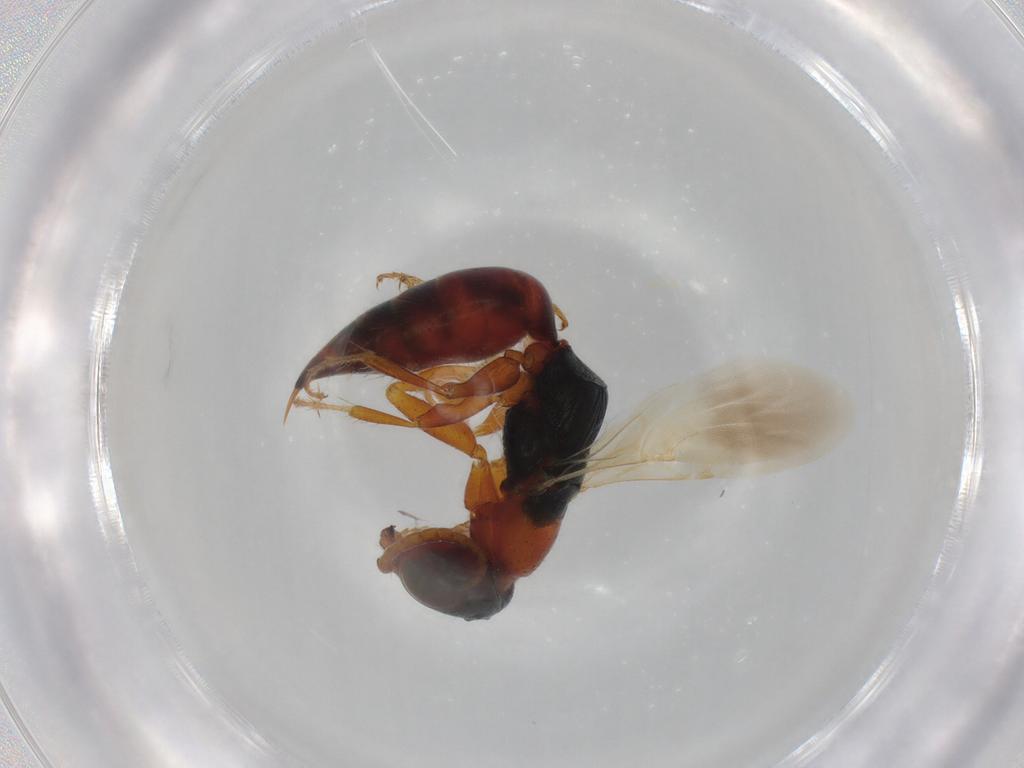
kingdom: Animalia
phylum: Arthropoda
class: Insecta
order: Hymenoptera
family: Bethylidae
